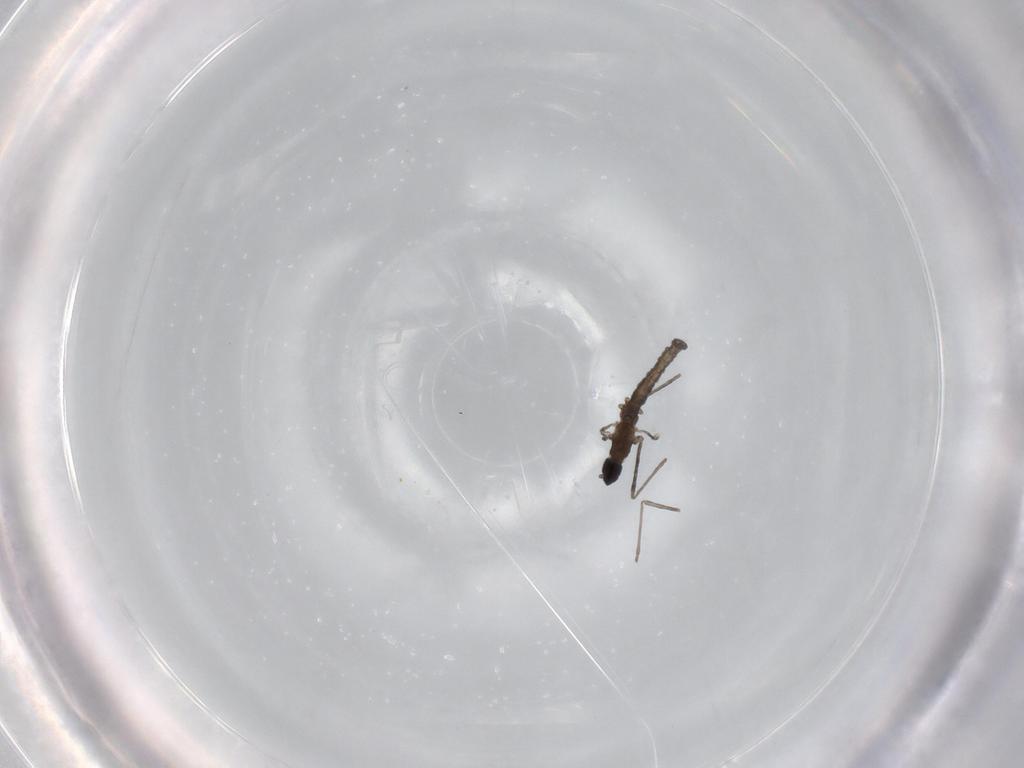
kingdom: Animalia
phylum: Arthropoda
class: Insecta
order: Diptera
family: Cecidomyiidae
